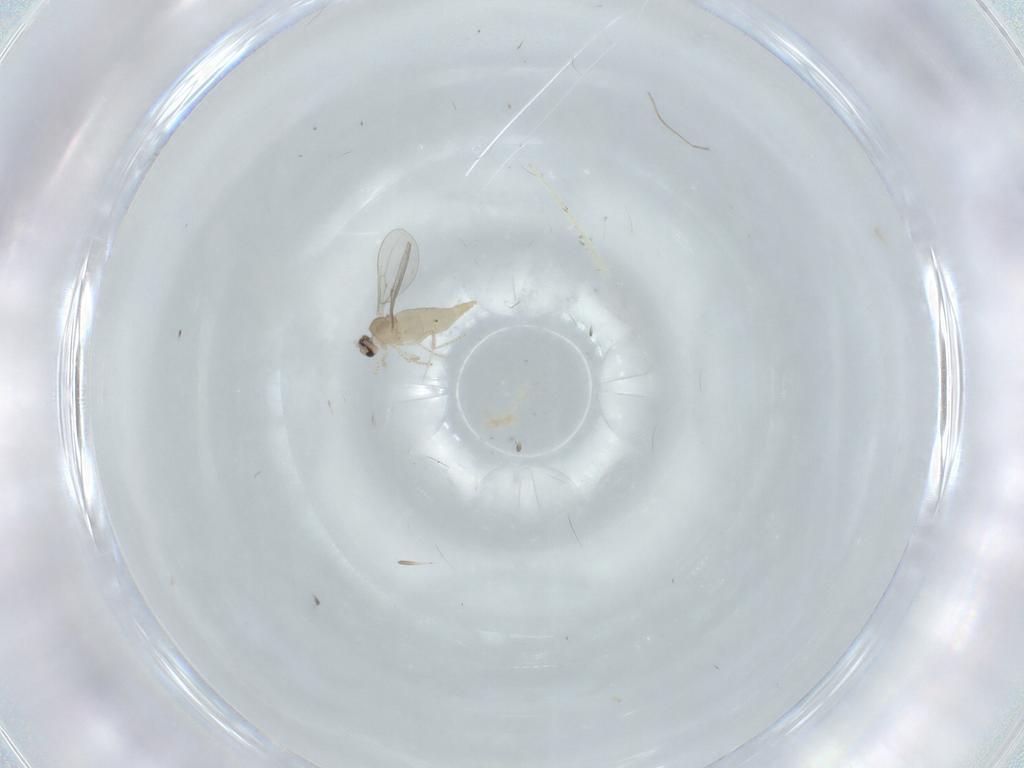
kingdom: Animalia
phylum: Arthropoda
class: Insecta
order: Diptera
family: Cecidomyiidae
